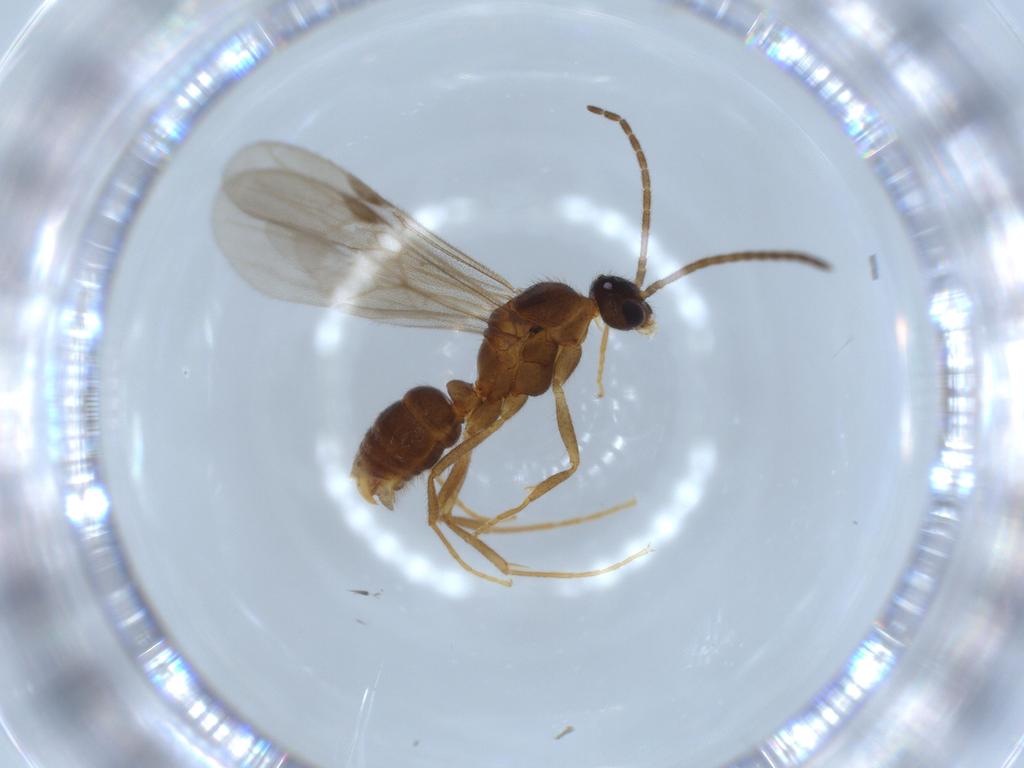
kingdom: Animalia
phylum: Arthropoda
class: Insecta
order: Hymenoptera
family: Formicidae
